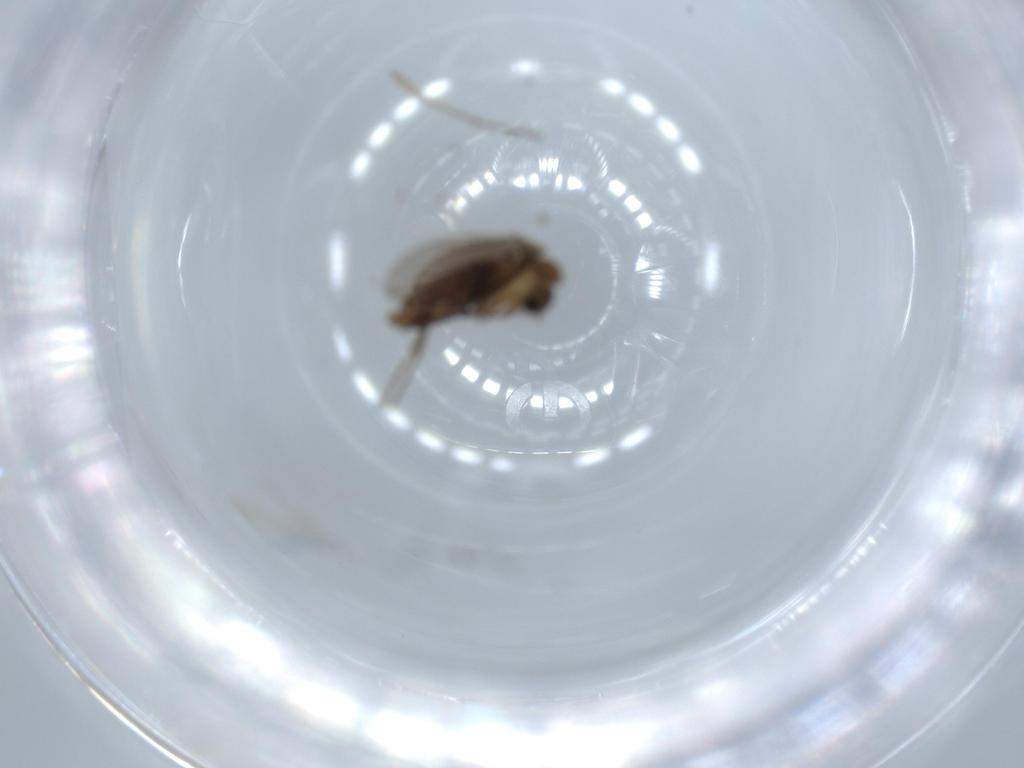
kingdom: Animalia
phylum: Arthropoda
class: Insecta
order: Diptera
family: Psychodidae
